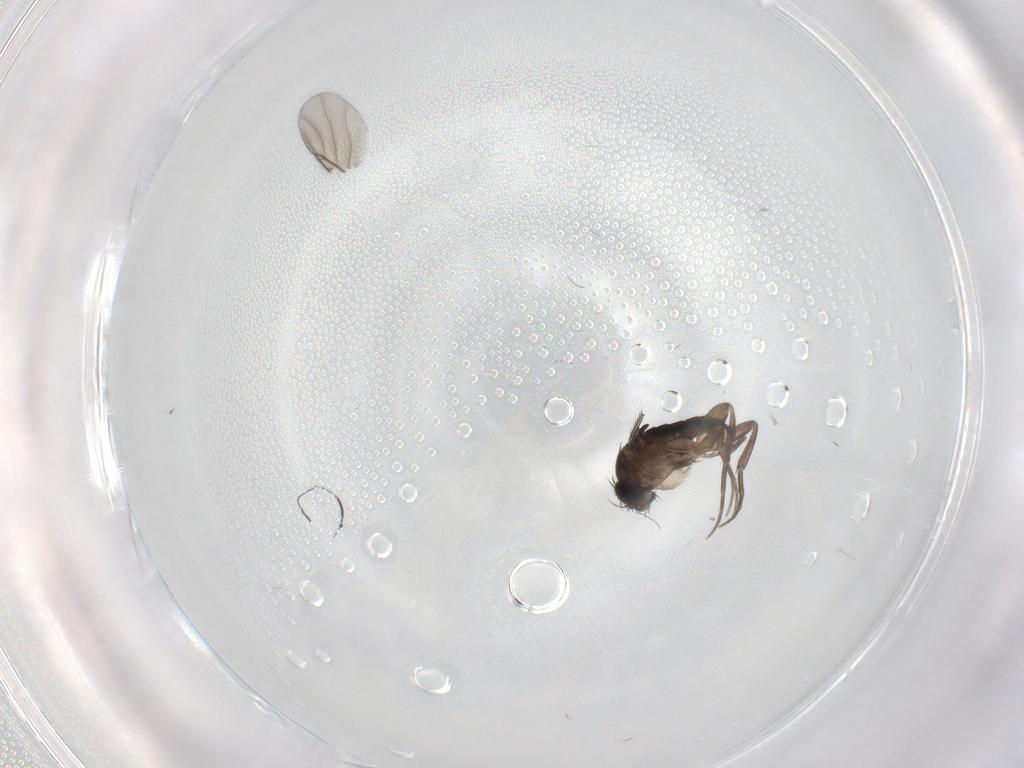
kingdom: Animalia
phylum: Arthropoda
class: Insecta
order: Diptera
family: Phoridae
